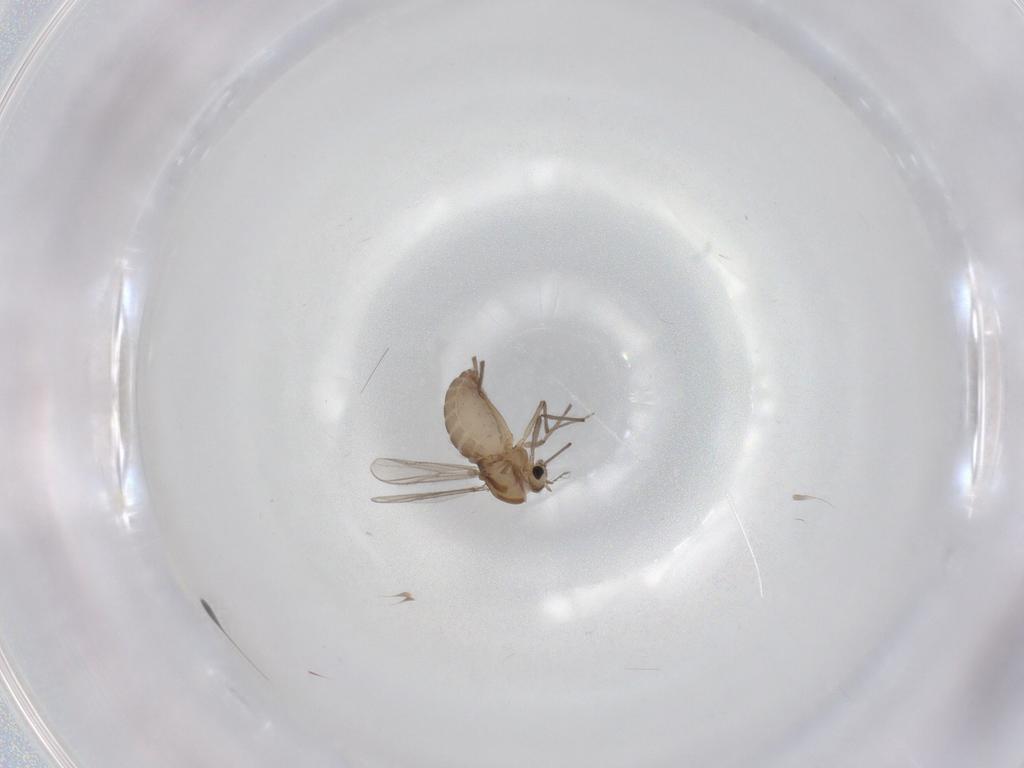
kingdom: Animalia
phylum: Arthropoda
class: Insecta
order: Diptera
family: Chironomidae
